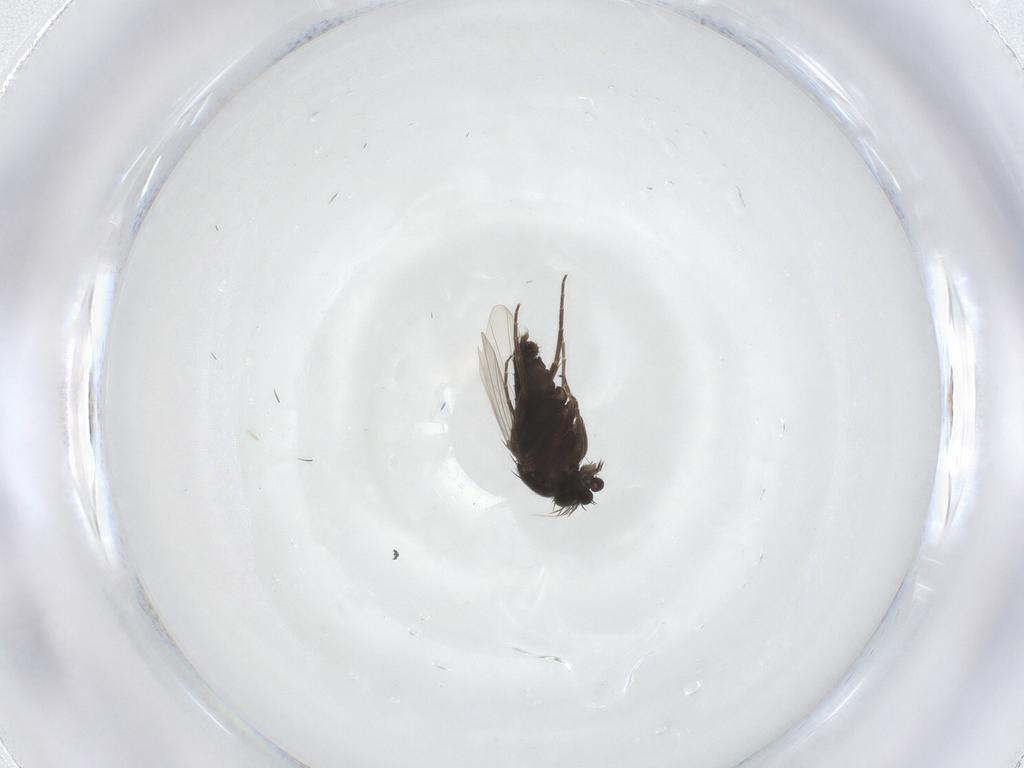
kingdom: Animalia
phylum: Arthropoda
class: Insecta
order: Diptera
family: Phoridae
